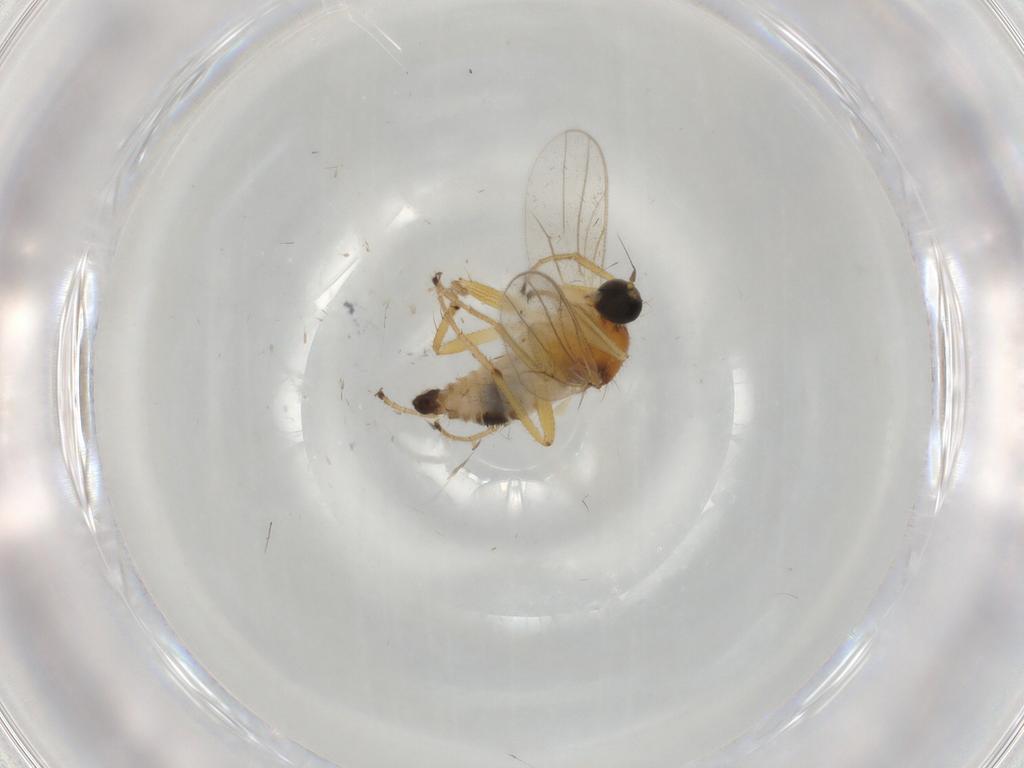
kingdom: Animalia
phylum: Arthropoda
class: Insecta
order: Diptera
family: Hybotidae
